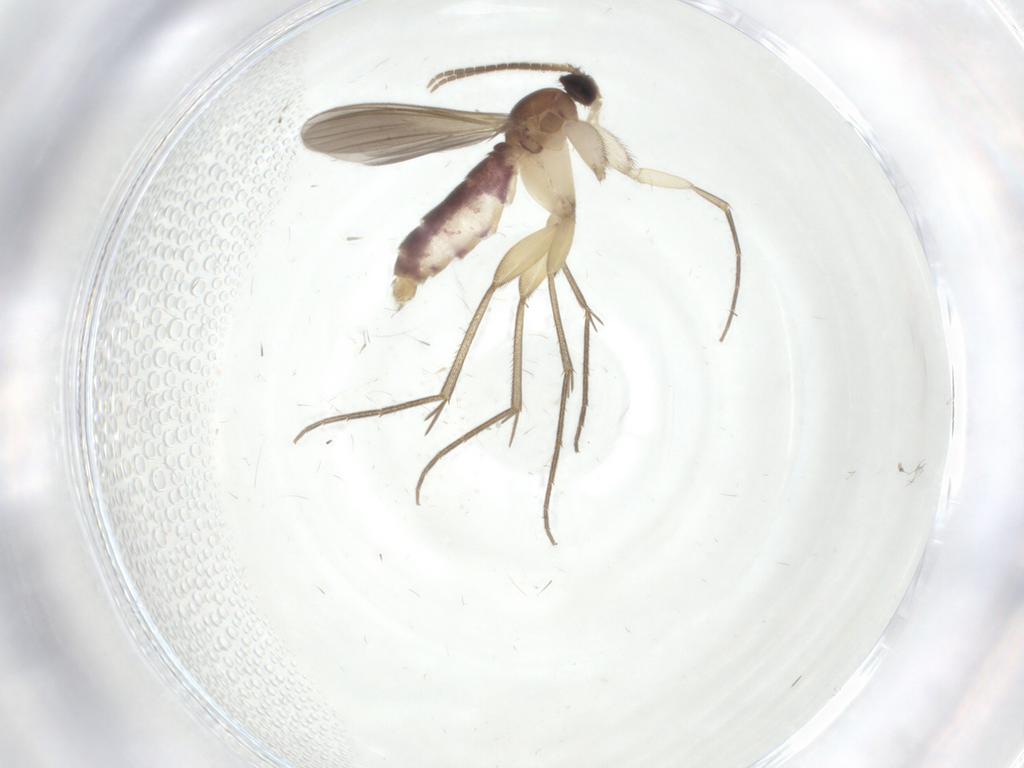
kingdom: Animalia
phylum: Arthropoda
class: Insecta
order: Diptera
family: Mycetophilidae
